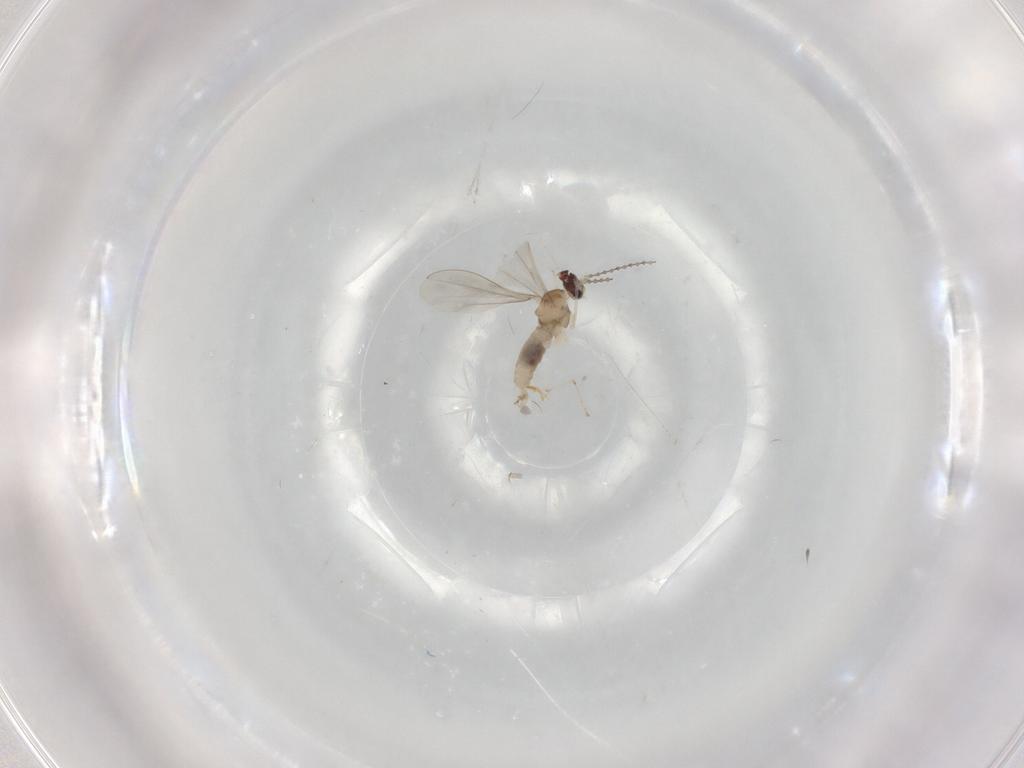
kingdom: Animalia
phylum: Arthropoda
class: Insecta
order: Diptera
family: Cecidomyiidae
